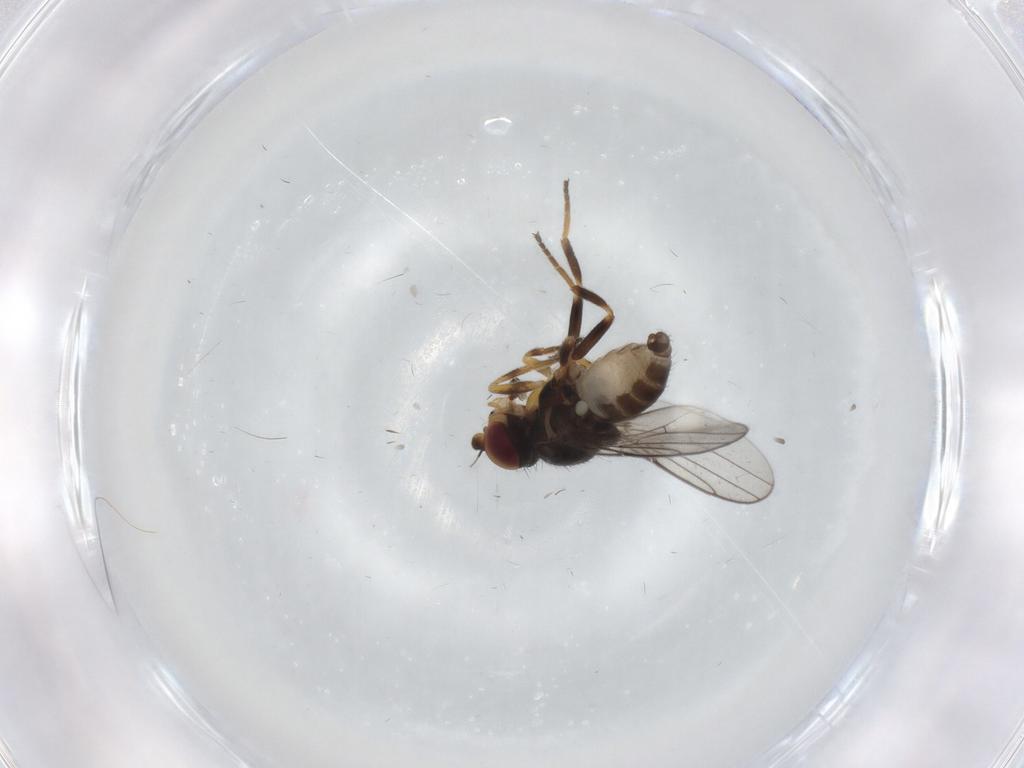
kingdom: Animalia
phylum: Arthropoda
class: Insecta
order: Diptera
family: Chloropidae
